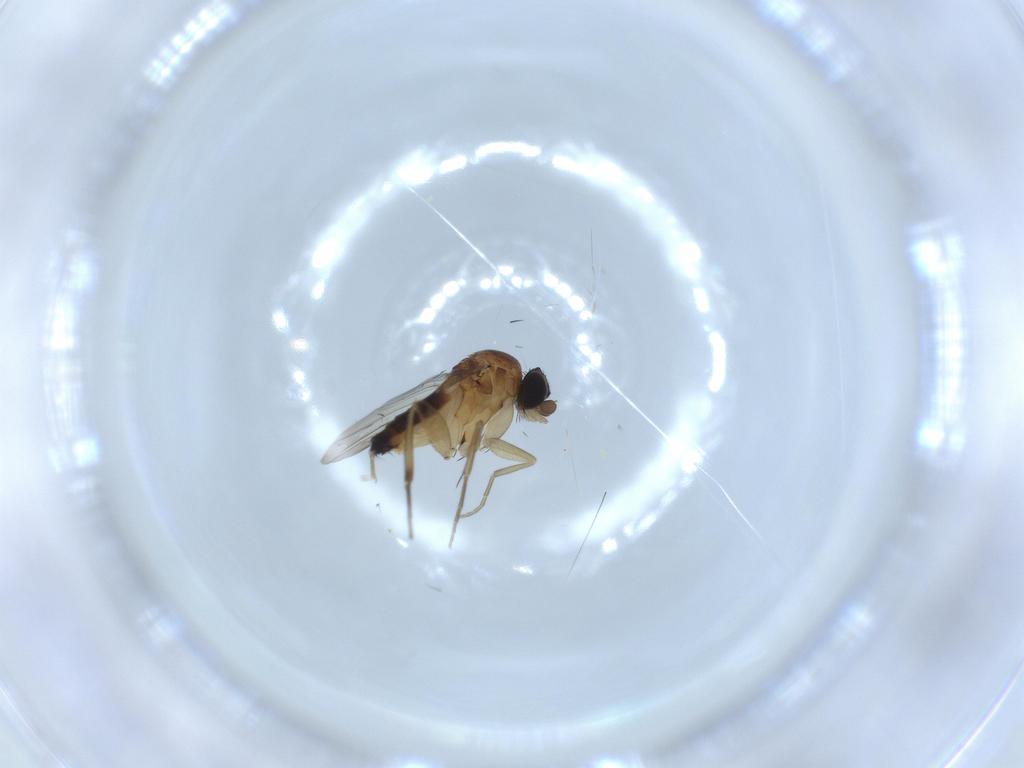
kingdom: Animalia
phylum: Arthropoda
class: Insecta
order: Diptera
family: Phoridae
